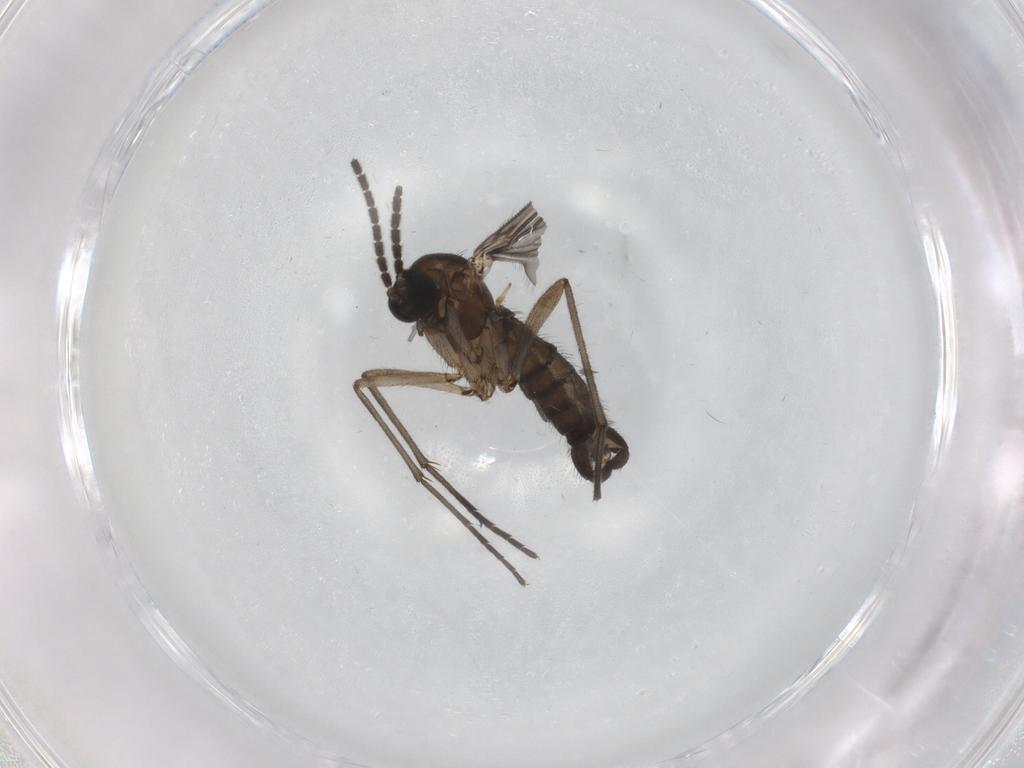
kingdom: Animalia
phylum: Arthropoda
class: Insecta
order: Diptera
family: Sciaridae
